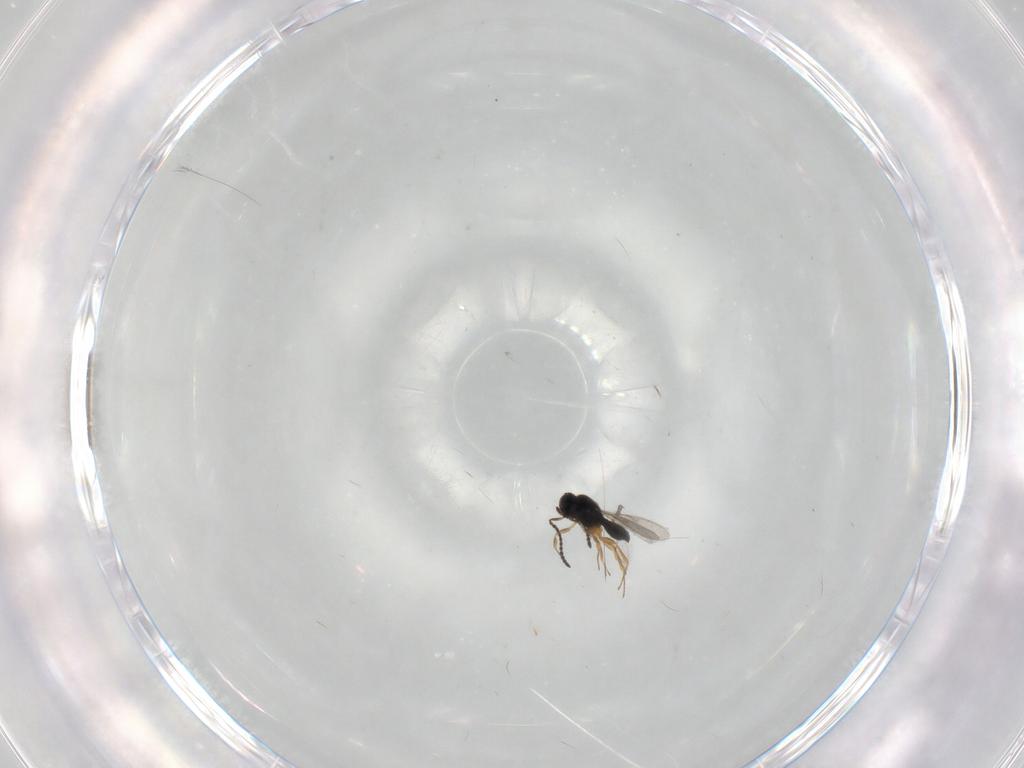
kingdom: Animalia
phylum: Arthropoda
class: Insecta
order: Hymenoptera
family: Scelionidae
